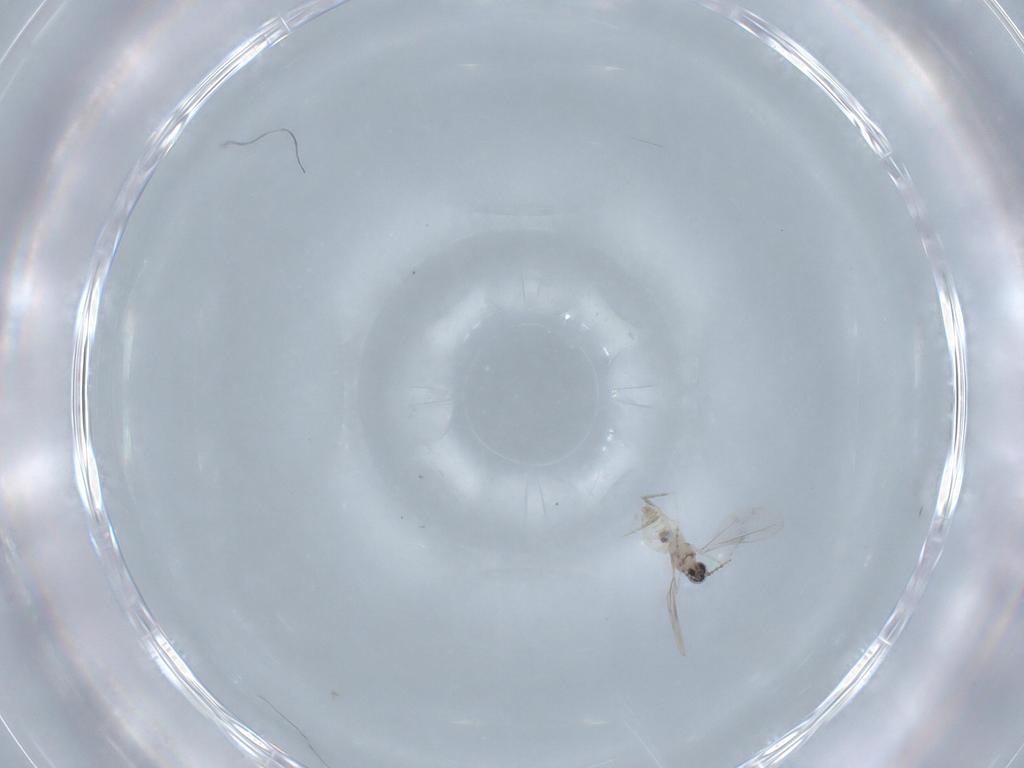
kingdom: Animalia
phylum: Arthropoda
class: Insecta
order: Diptera
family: Cecidomyiidae
